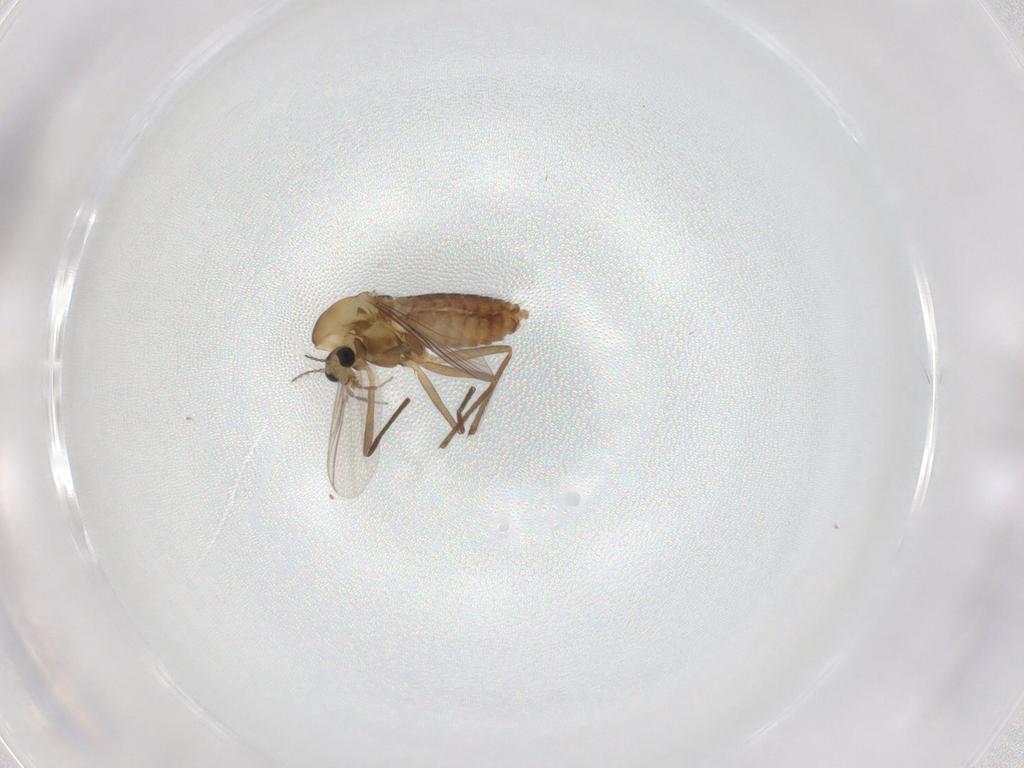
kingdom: Animalia
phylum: Arthropoda
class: Insecta
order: Diptera
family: Chironomidae
